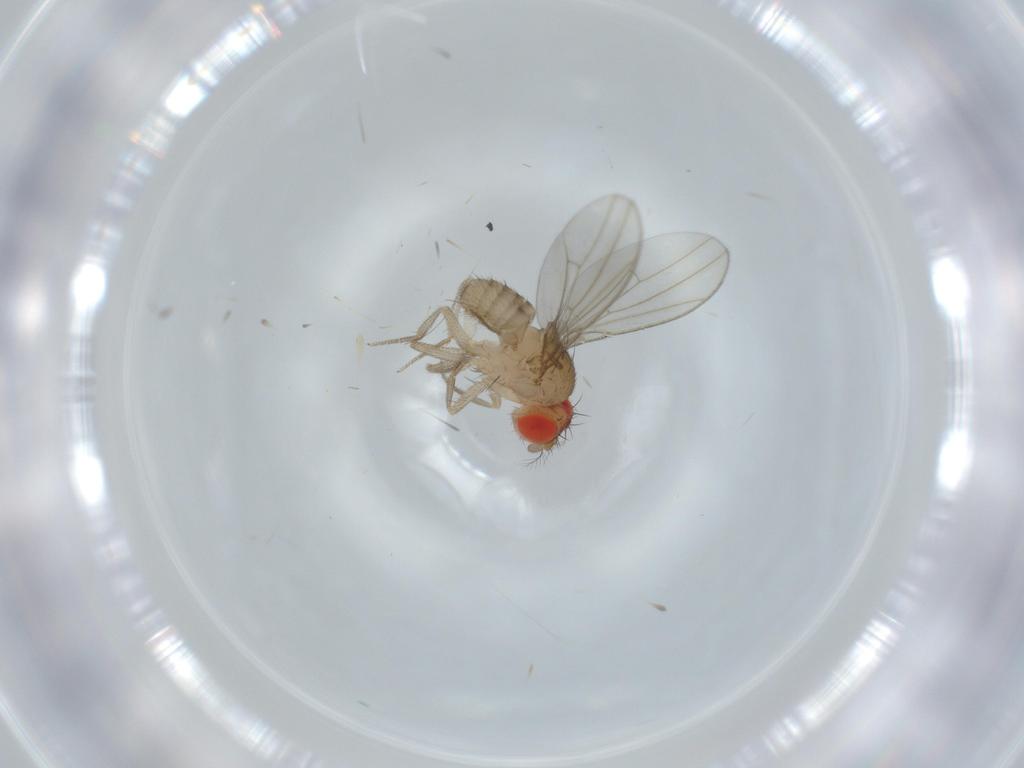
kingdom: Animalia
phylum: Arthropoda
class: Insecta
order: Diptera
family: Drosophilidae
